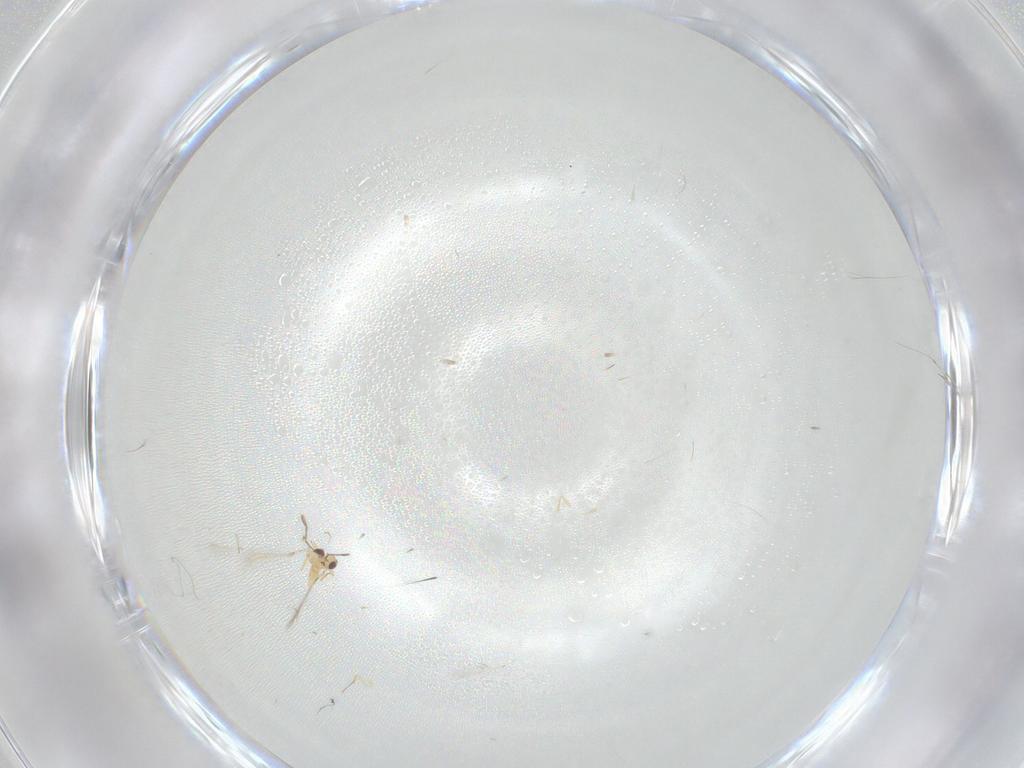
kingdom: Animalia
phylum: Arthropoda
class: Insecta
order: Hymenoptera
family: Mymaridae
